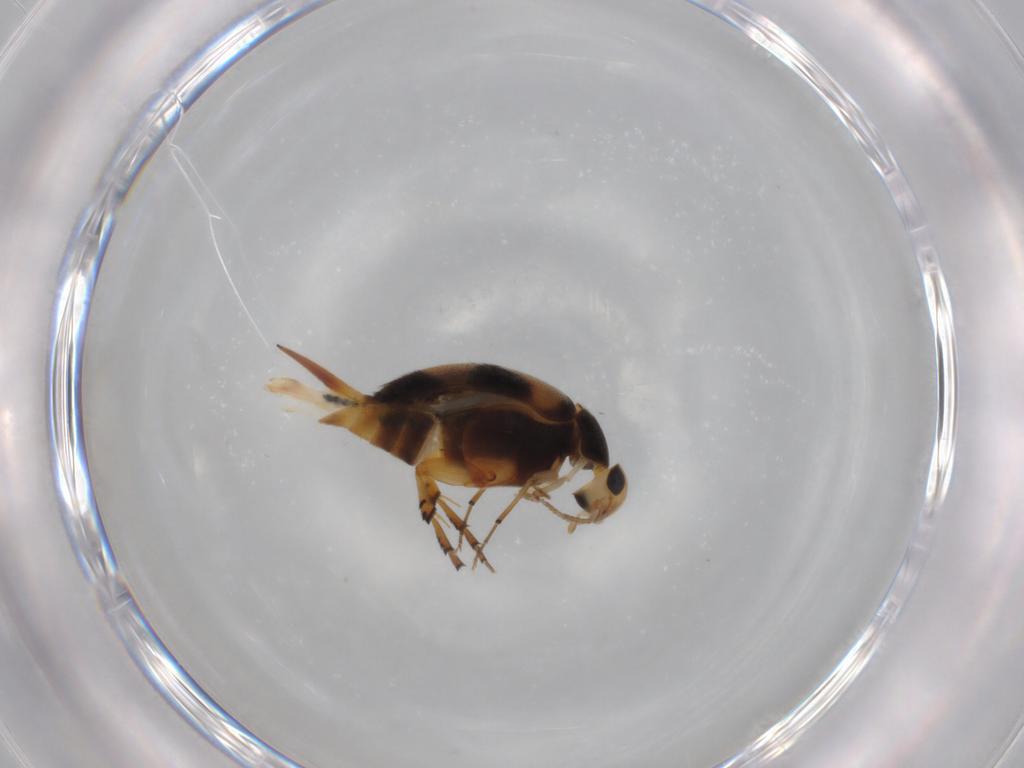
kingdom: Animalia
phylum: Arthropoda
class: Insecta
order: Coleoptera
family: Mordellidae
